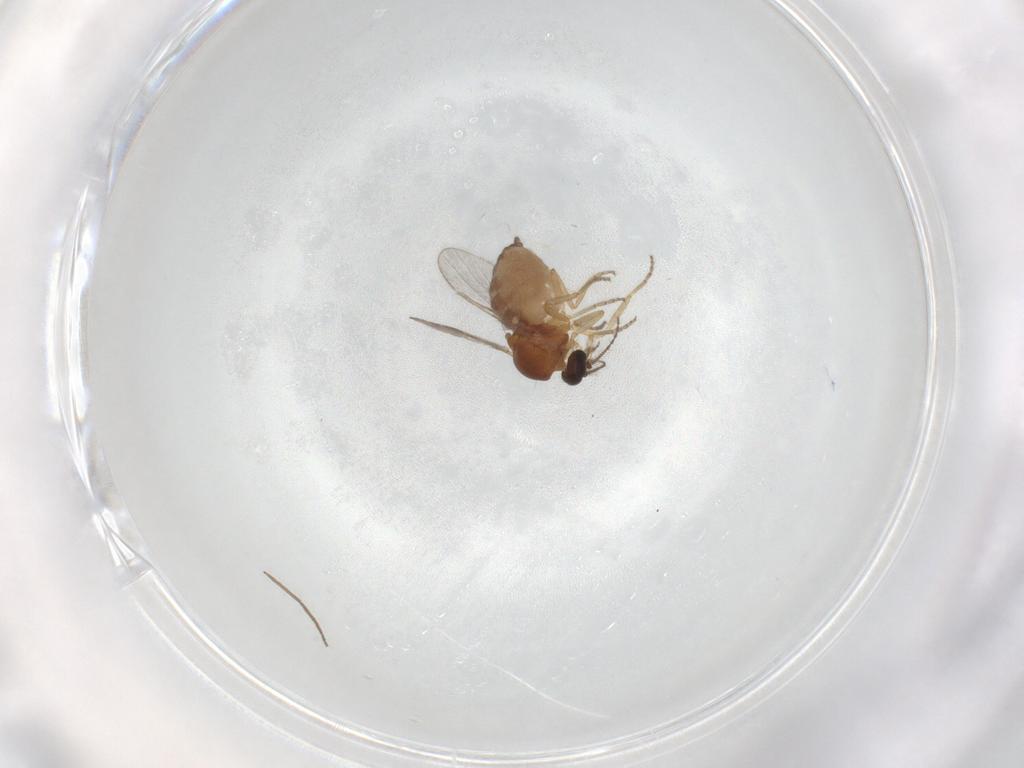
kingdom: Animalia
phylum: Arthropoda
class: Insecta
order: Diptera
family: Ceratopogonidae
